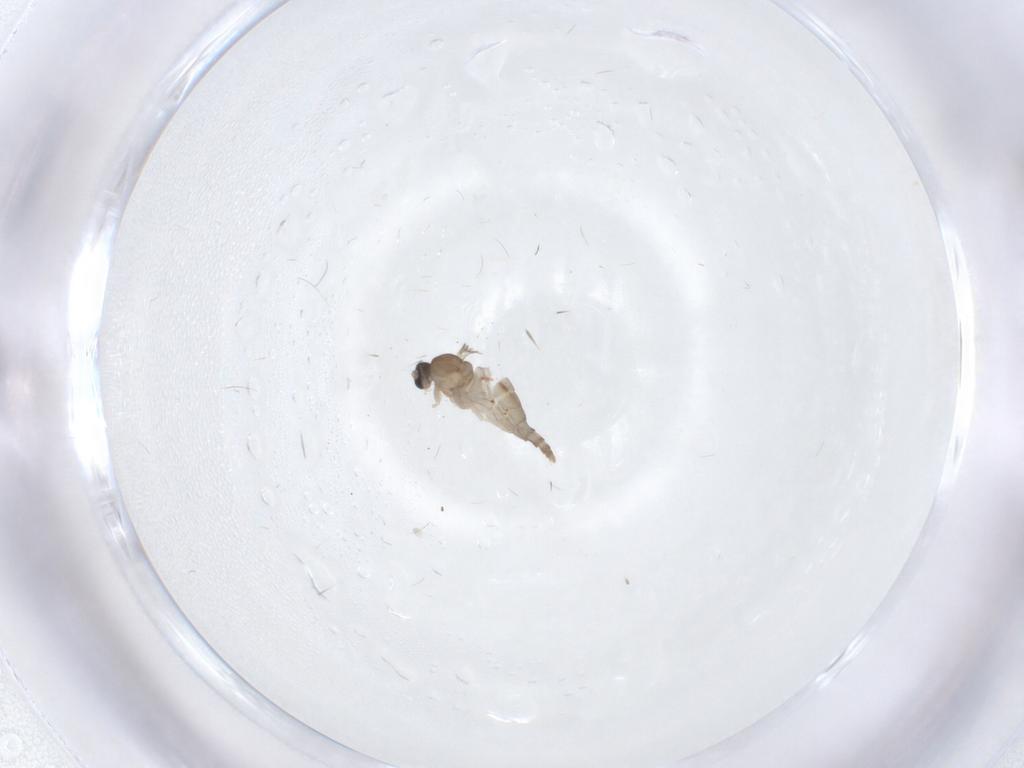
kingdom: Animalia
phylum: Arthropoda
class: Insecta
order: Diptera
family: Cecidomyiidae
